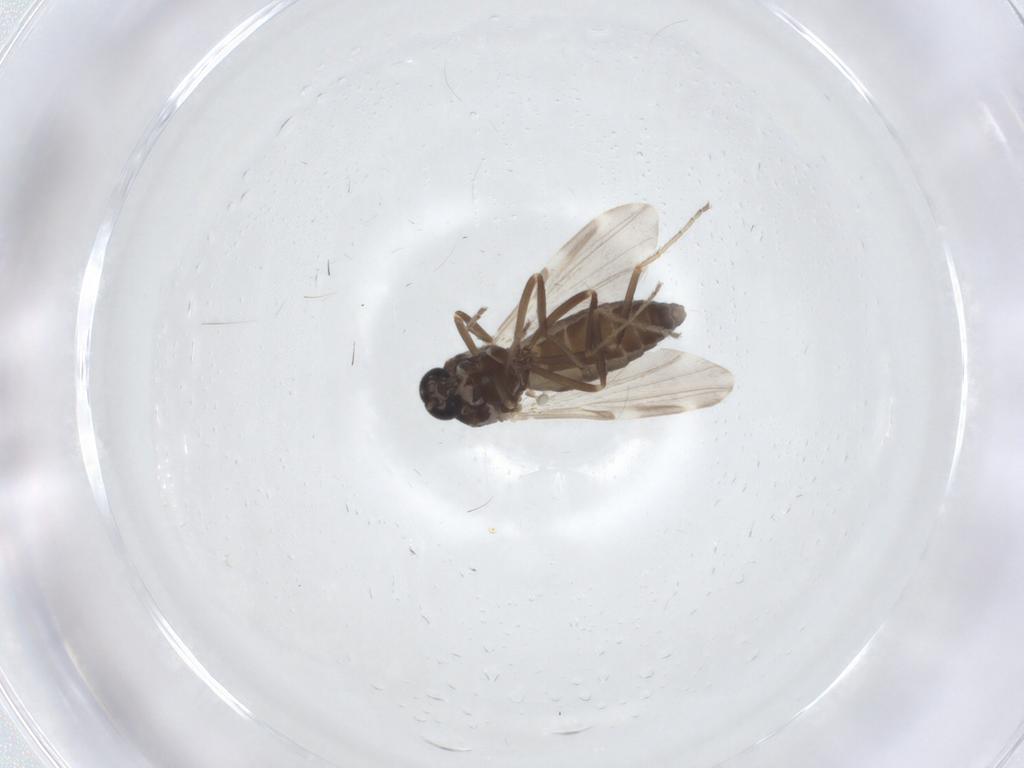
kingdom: Animalia
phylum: Arthropoda
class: Insecta
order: Diptera
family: Ceratopogonidae
